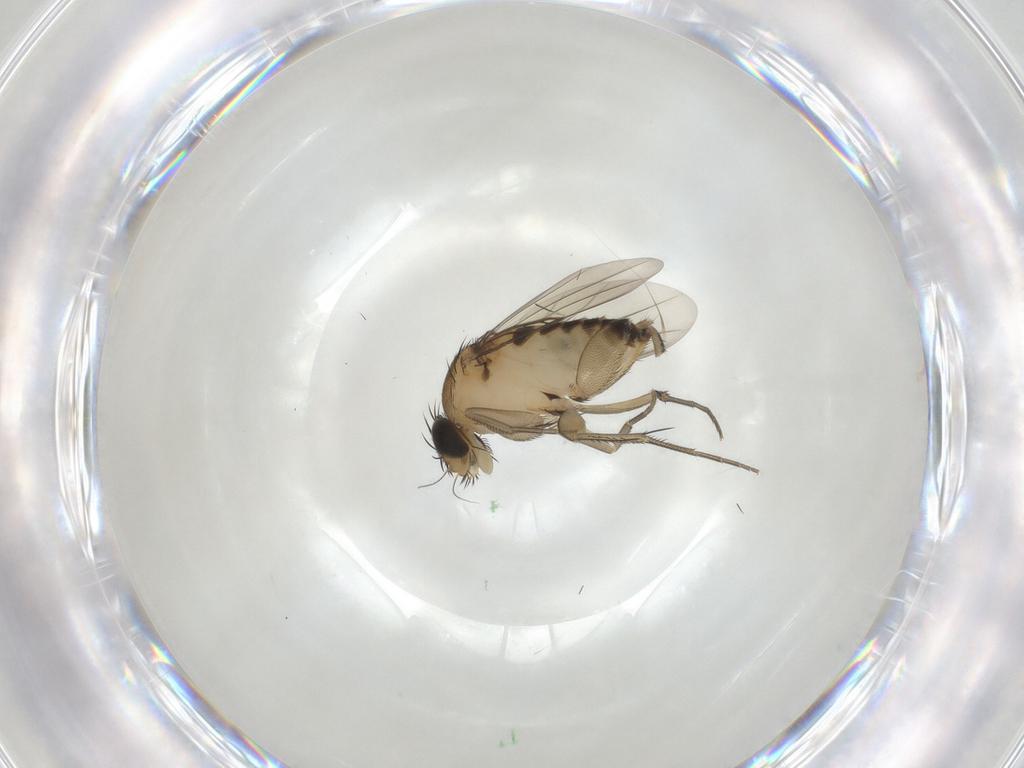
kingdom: Animalia
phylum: Arthropoda
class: Insecta
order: Diptera
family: Phoridae
